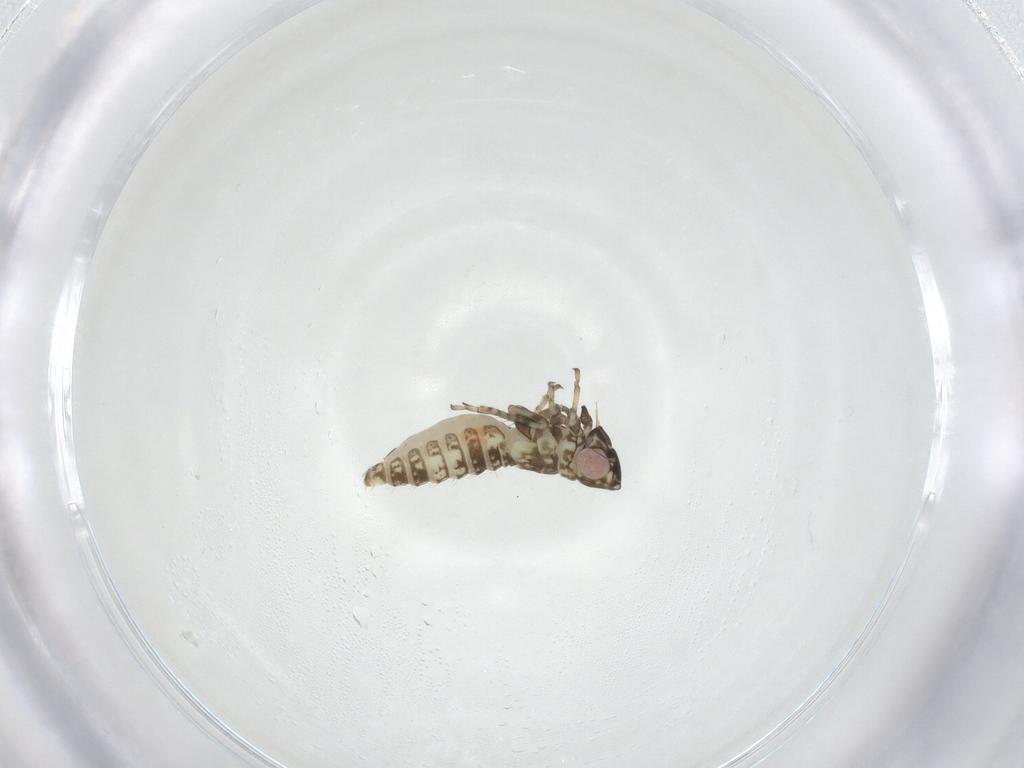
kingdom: Animalia
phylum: Arthropoda
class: Insecta
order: Hemiptera
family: Cicadellidae
